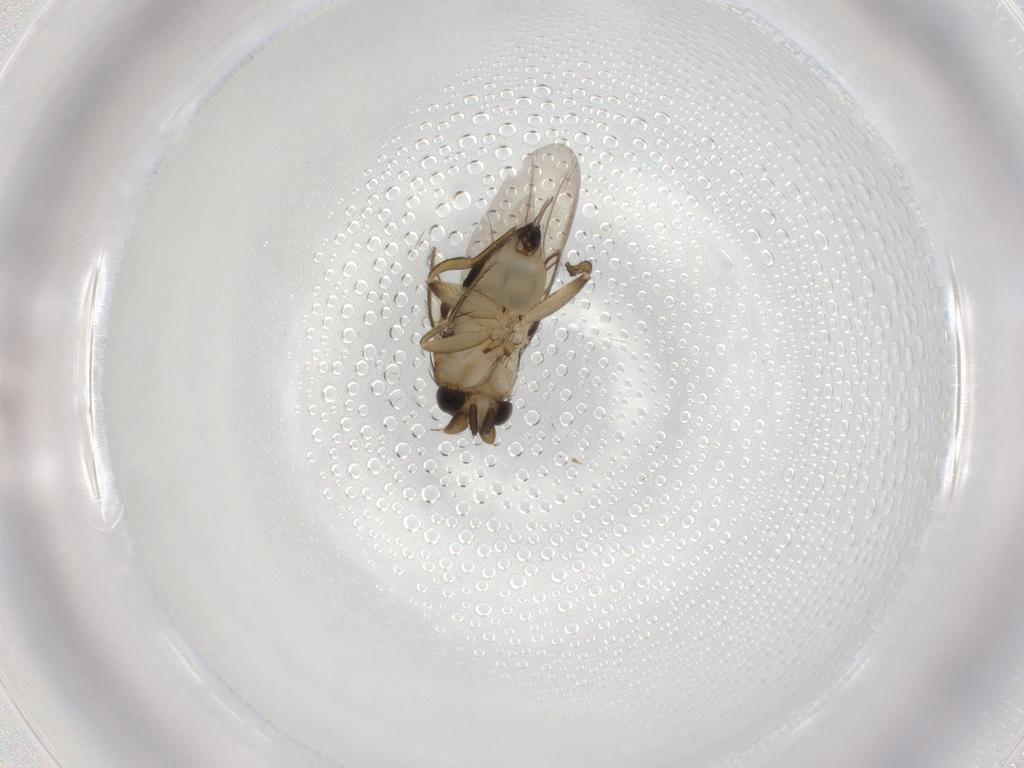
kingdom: Animalia
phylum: Arthropoda
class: Insecta
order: Diptera
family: Phoridae
